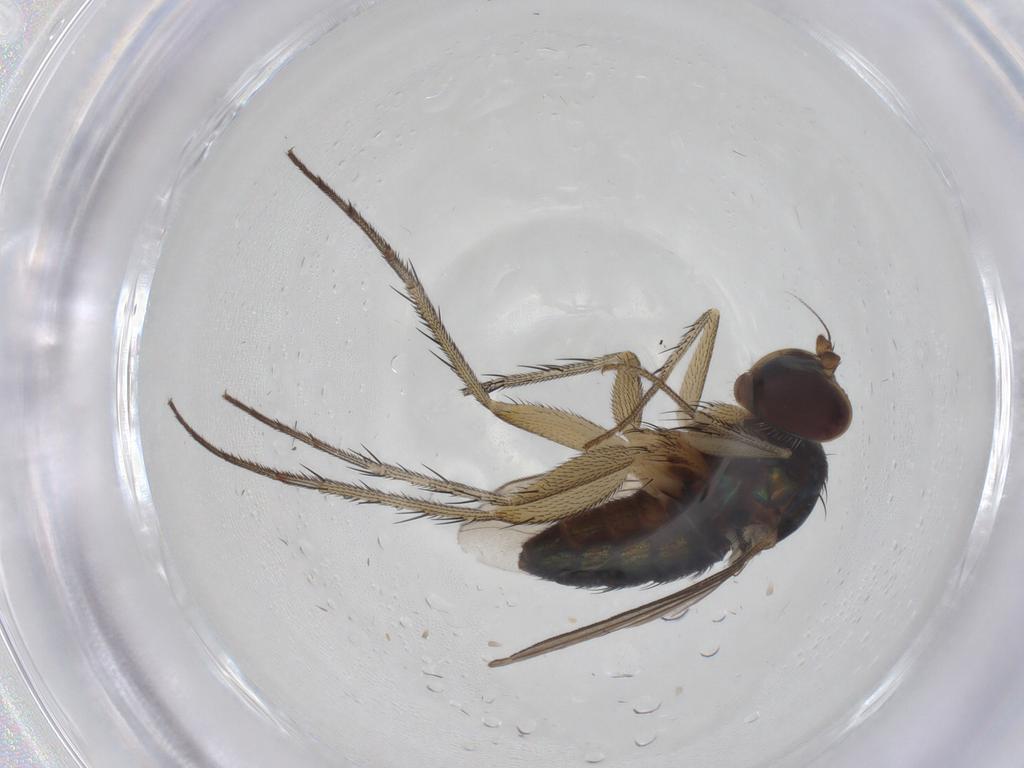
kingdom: Animalia
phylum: Arthropoda
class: Insecta
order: Diptera
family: Dolichopodidae
